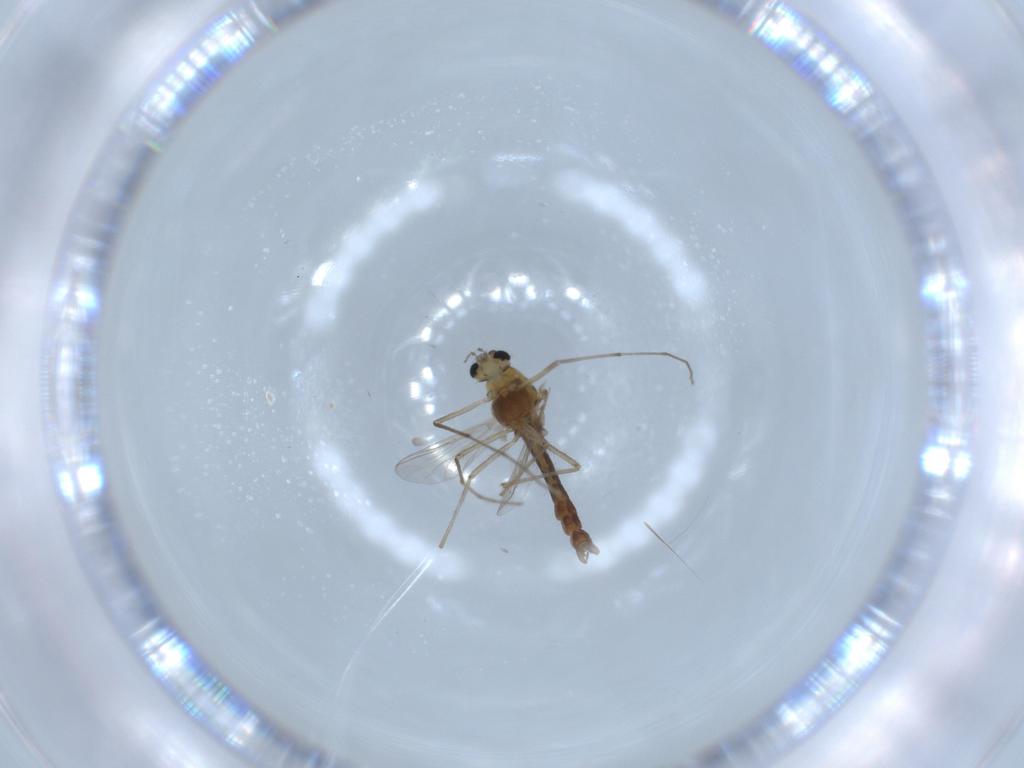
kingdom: Animalia
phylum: Arthropoda
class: Insecta
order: Diptera
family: Chironomidae
